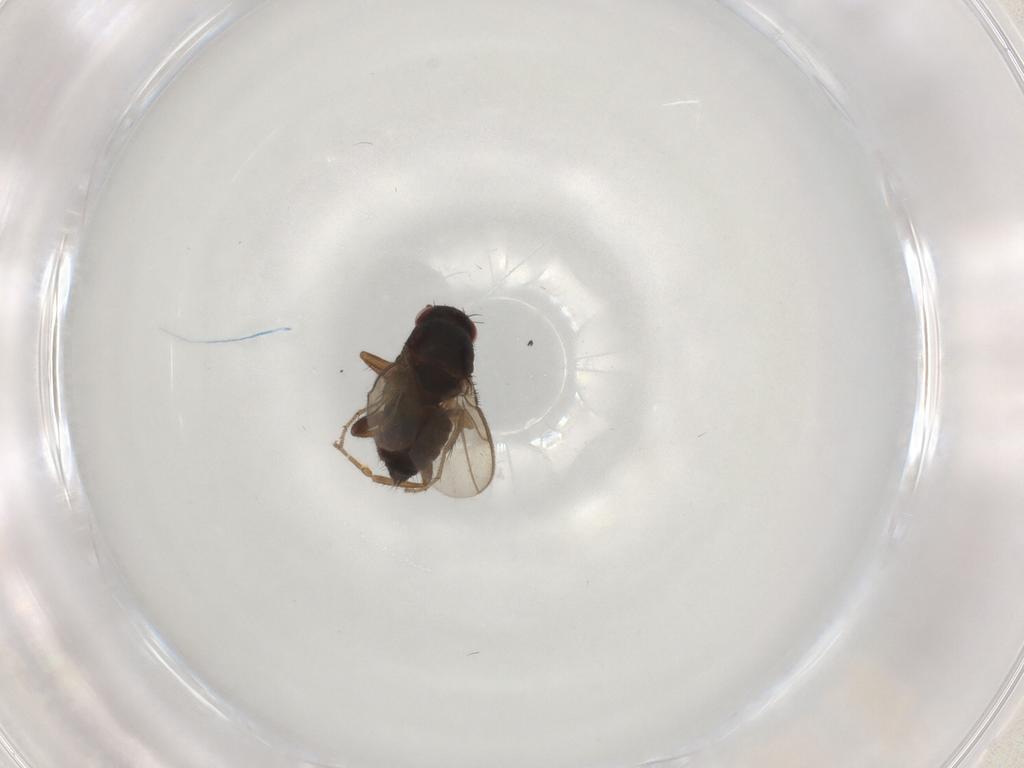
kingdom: Animalia
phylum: Arthropoda
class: Insecta
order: Diptera
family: Sphaeroceridae
